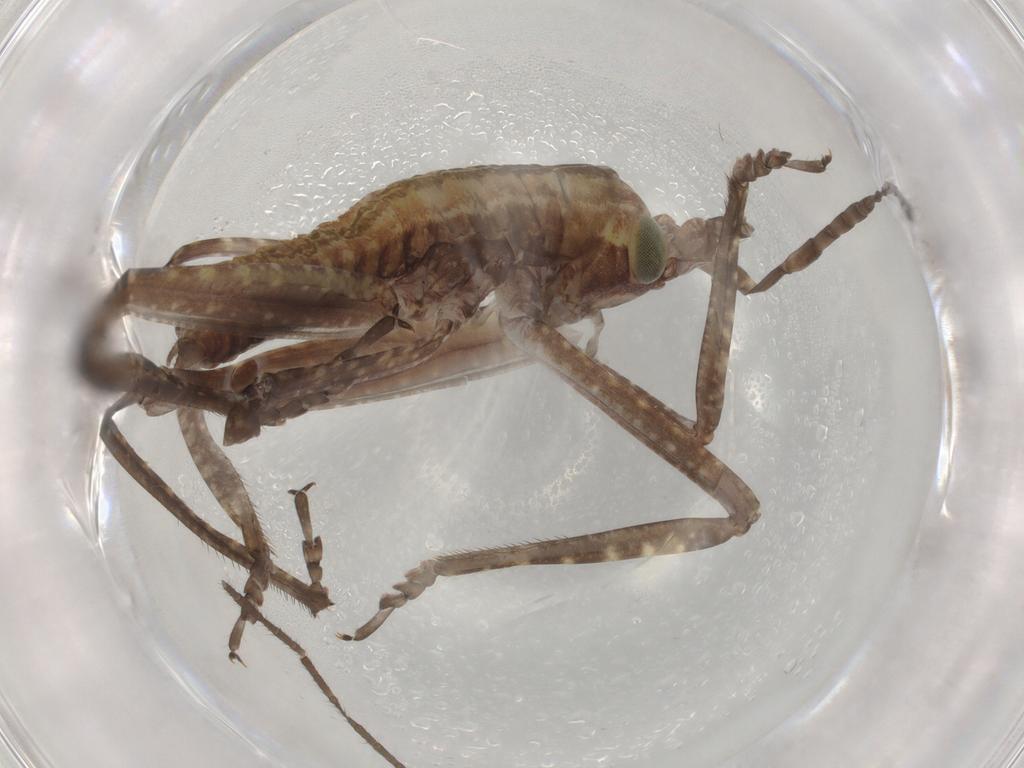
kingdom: Animalia
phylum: Arthropoda
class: Insecta
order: Orthoptera
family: Tettigoniidae
